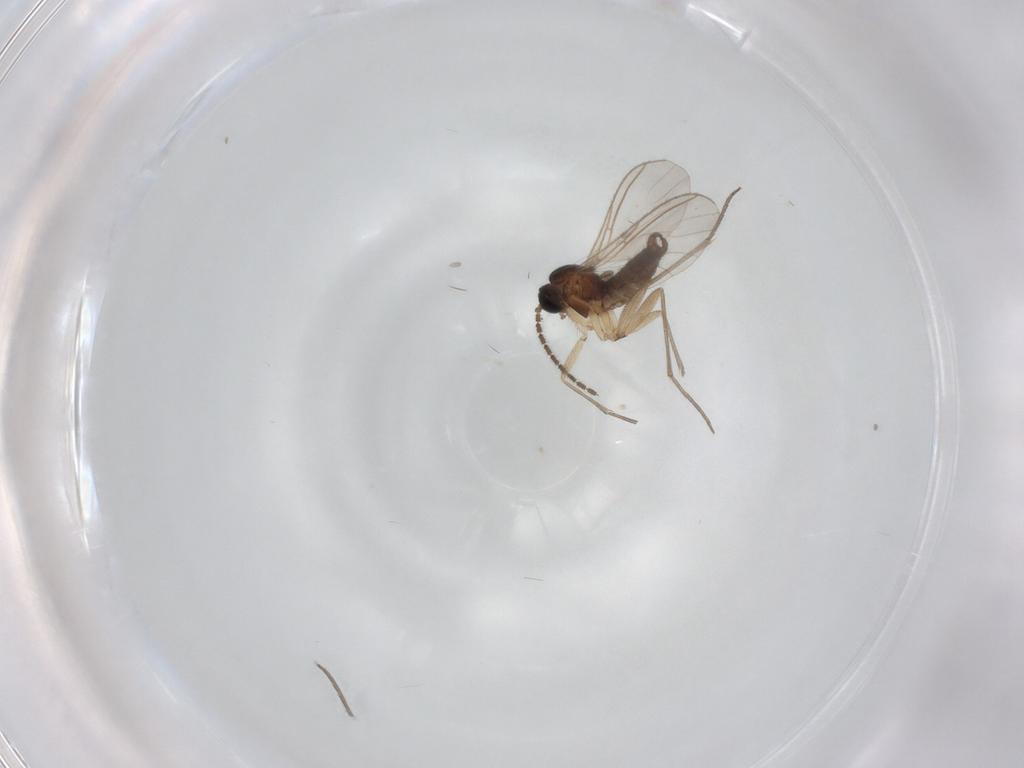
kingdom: Animalia
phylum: Arthropoda
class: Insecta
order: Diptera
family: Sciaridae
